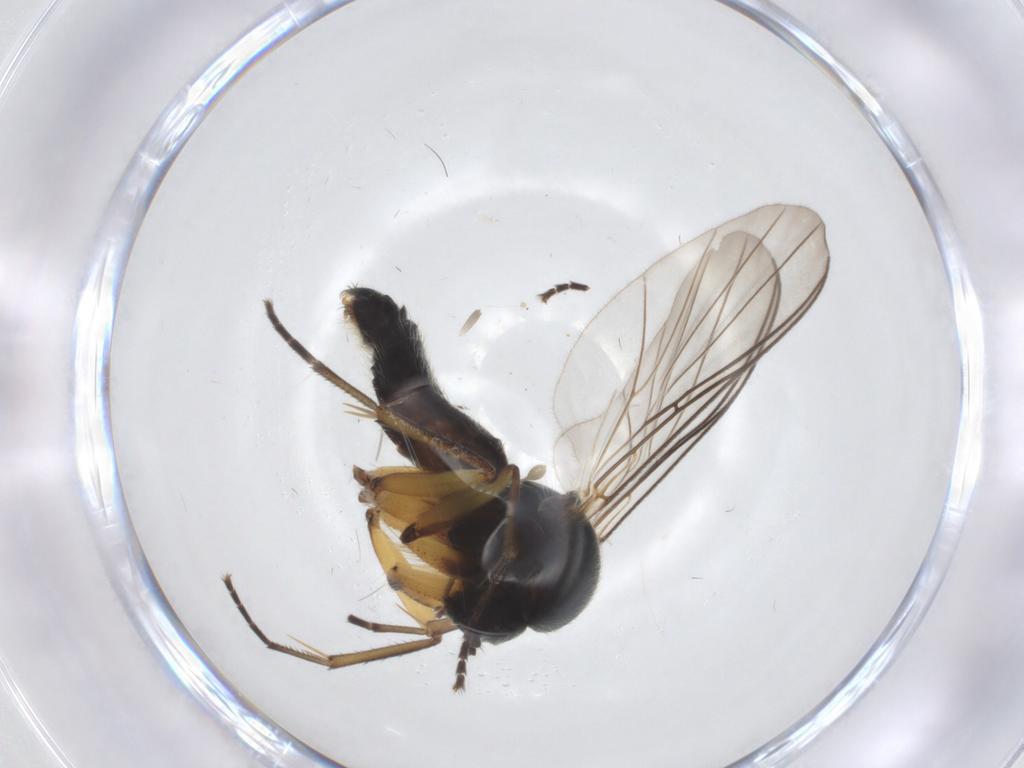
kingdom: Animalia
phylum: Arthropoda
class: Insecta
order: Diptera
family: Mycetophilidae
